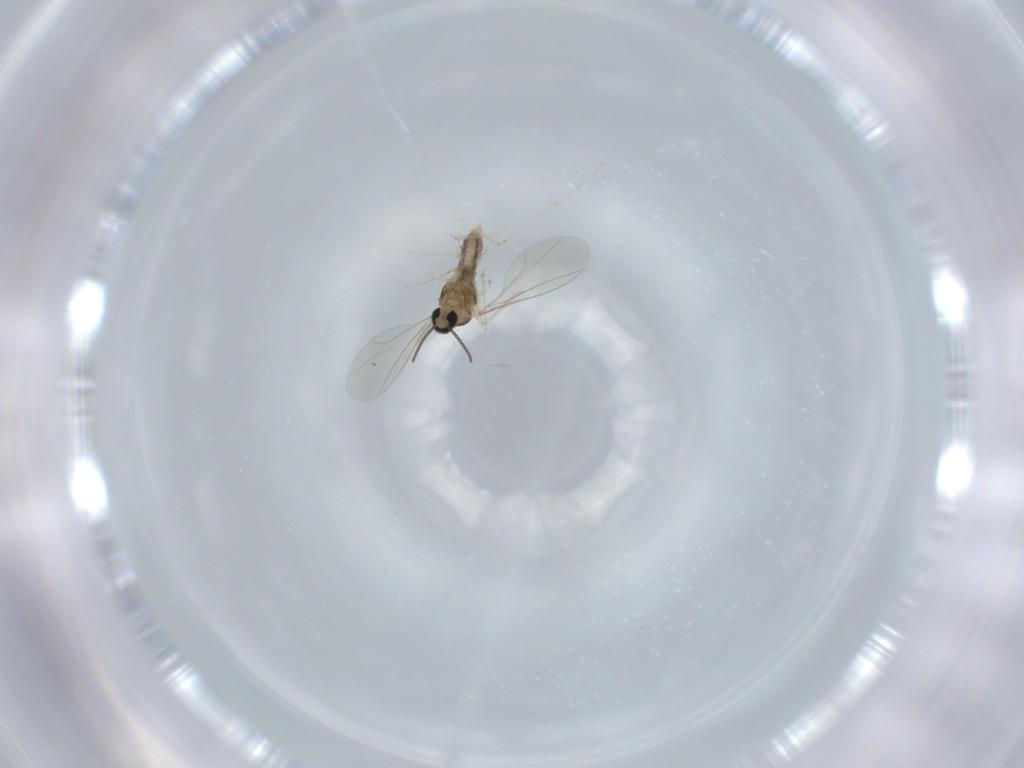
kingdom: Animalia
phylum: Arthropoda
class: Insecta
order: Diptera
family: Cecidomyiidae
